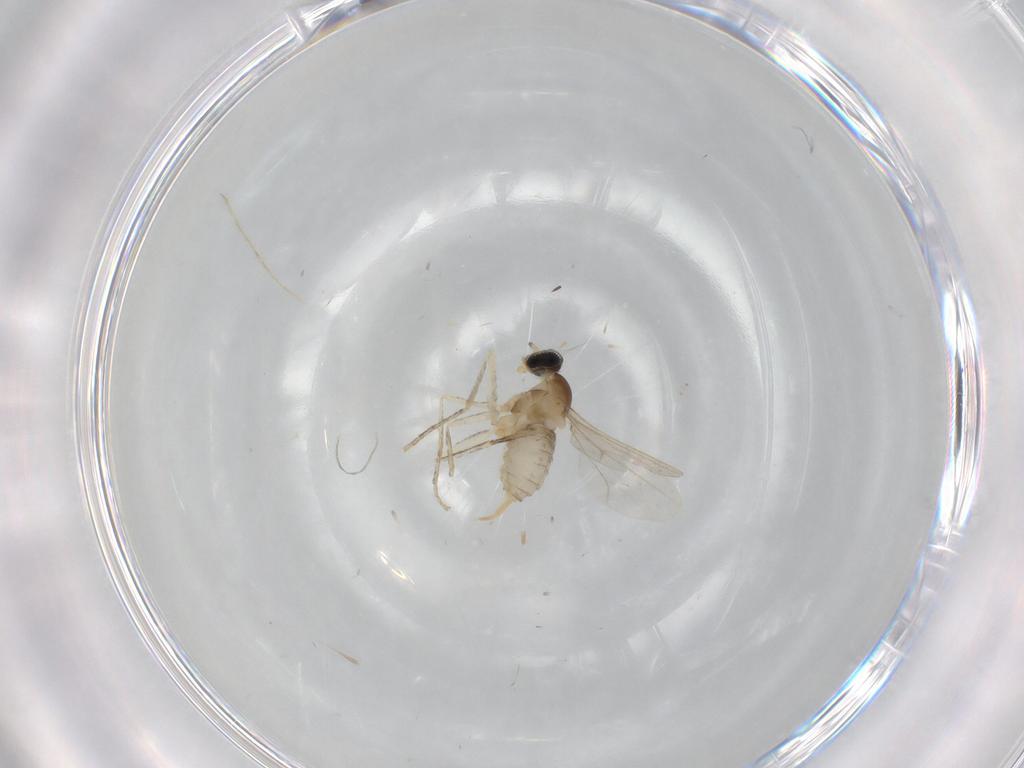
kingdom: Animalia
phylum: Arthropoda
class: Insecta
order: Diptera
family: Cecidomyiidae
